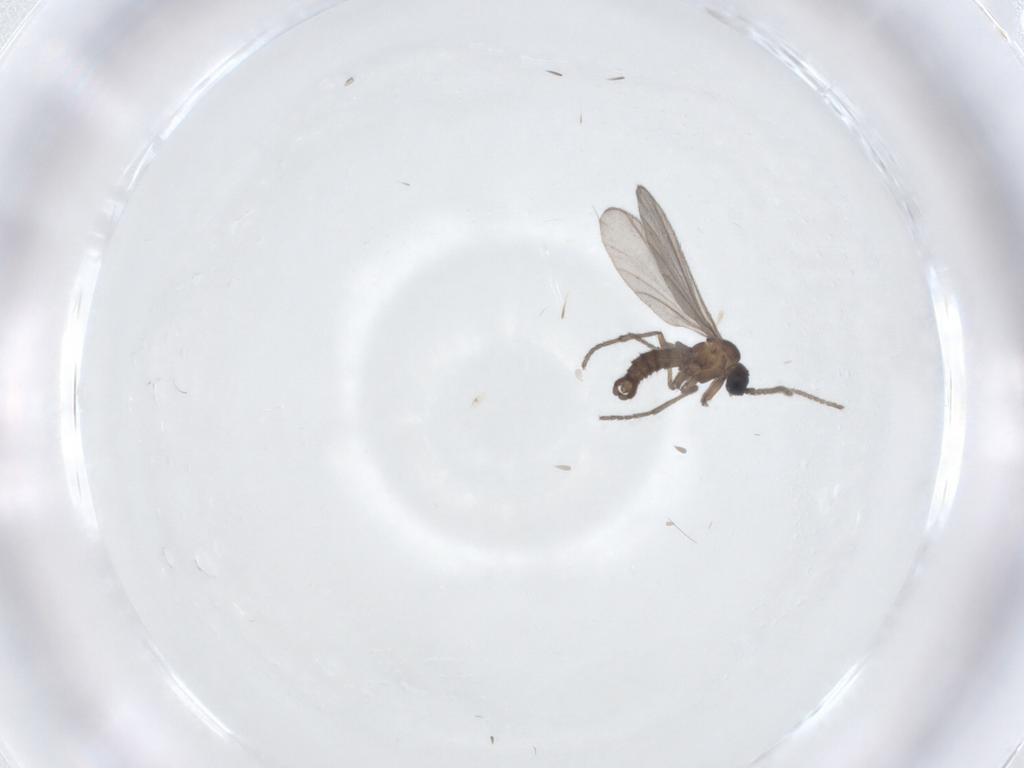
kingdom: Animalia
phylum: Arthropoda
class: Insecta
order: Diptera
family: Sciaridae
